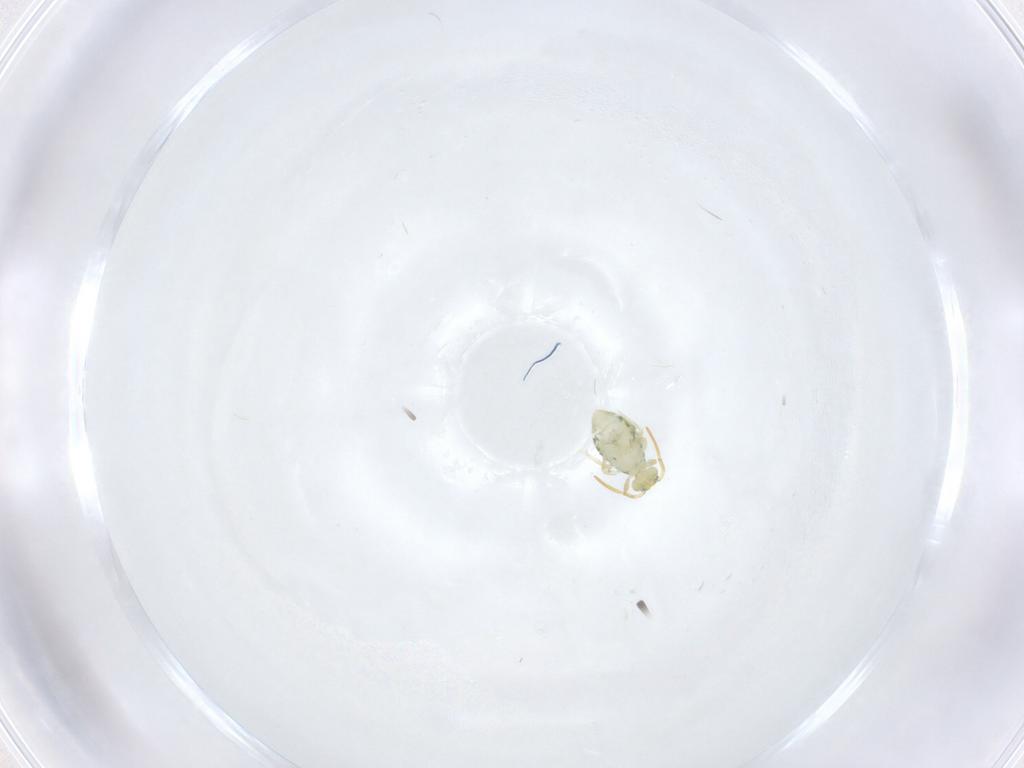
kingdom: Animalia
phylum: Arthropoda
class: Collembola
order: Symphypleona
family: Katiannidae
